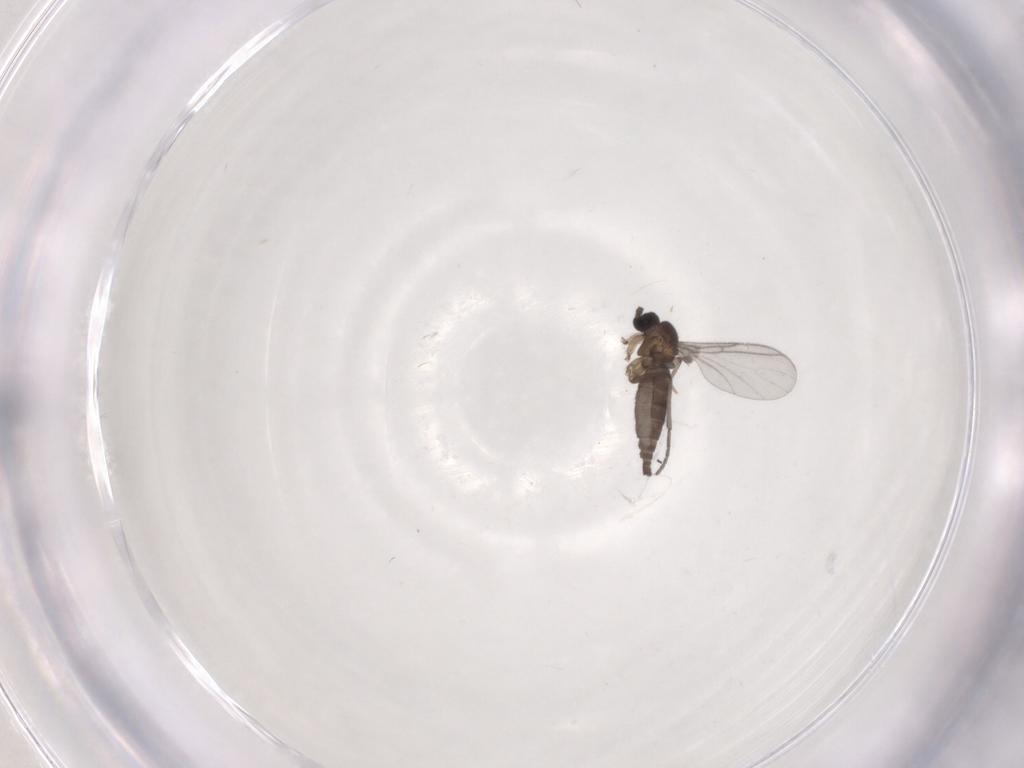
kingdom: Animalia
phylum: Arthropoda
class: Insecta
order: Diptera
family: Sciaridae
